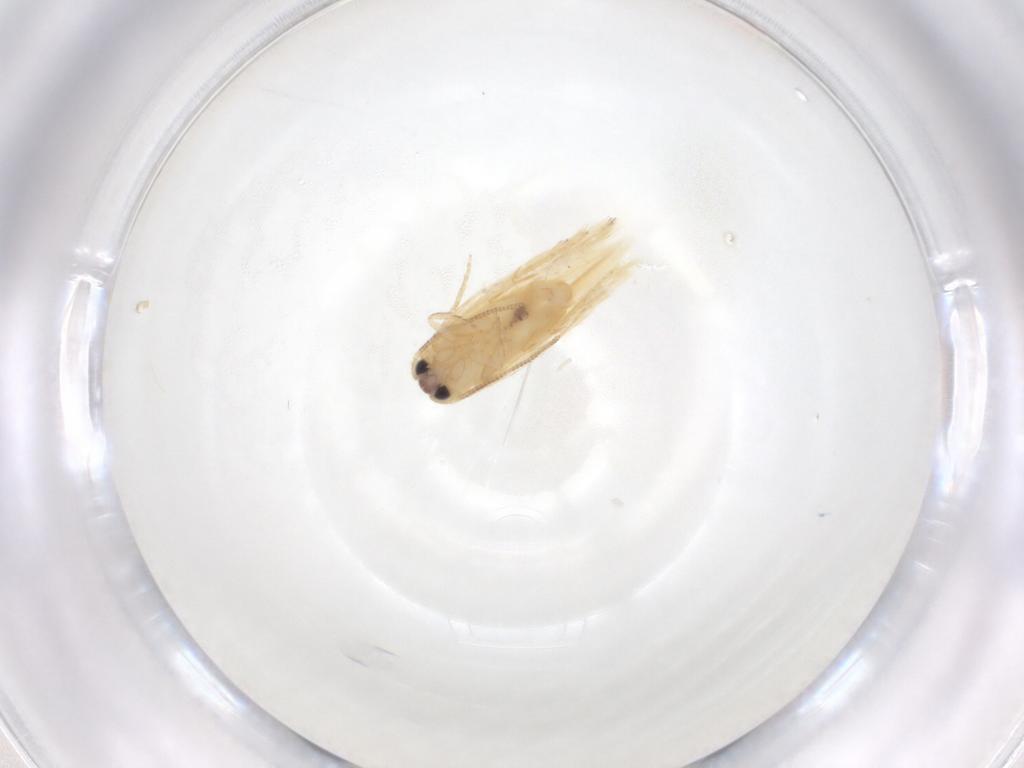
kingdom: Animalia
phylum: Arthropoda
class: Insecta
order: Lepidoptera
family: Nepticulidae
